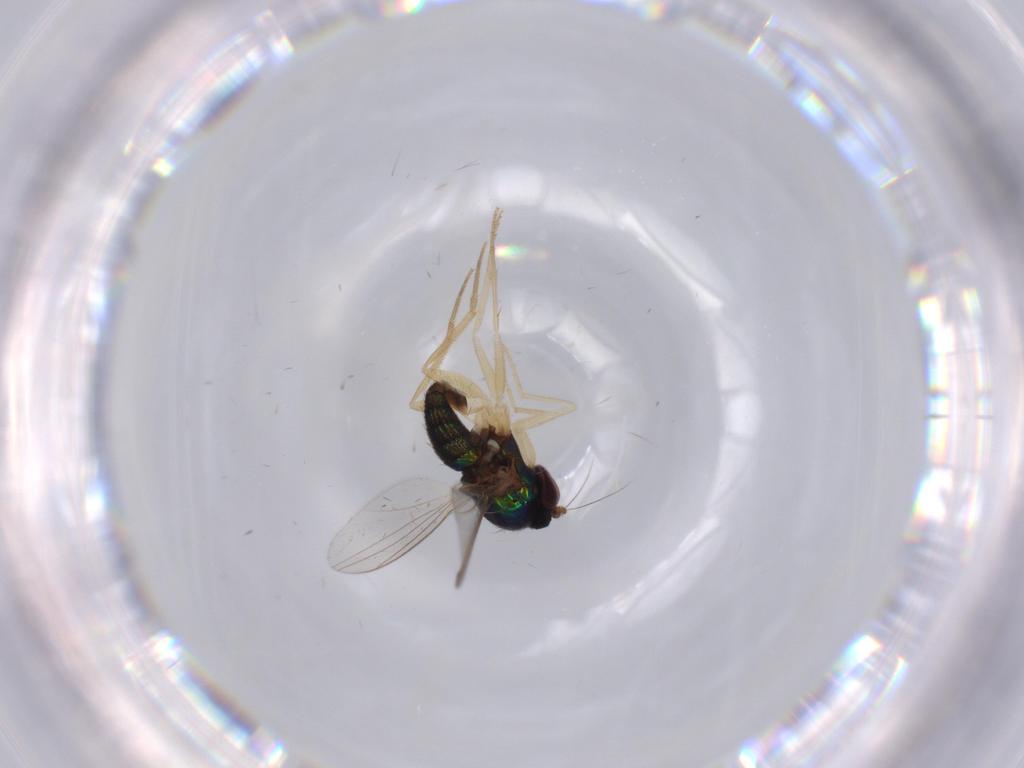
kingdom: Animalia
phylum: Arthropoda
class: Insecta
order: Diptera
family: Dolichopodidae
